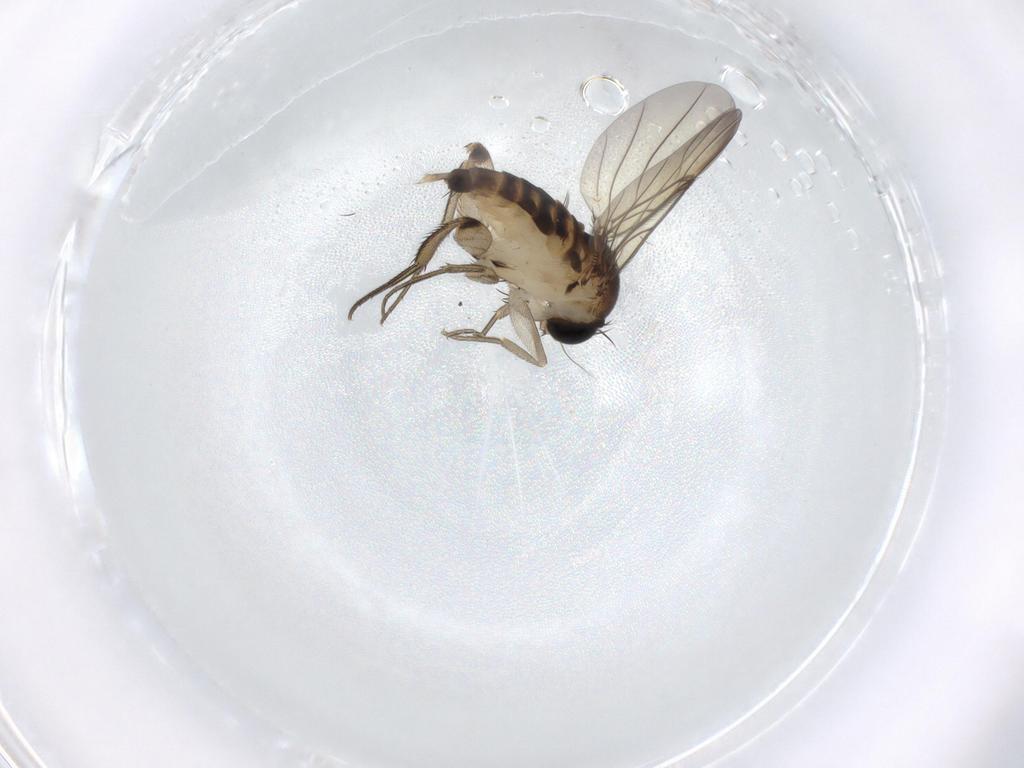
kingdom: Animalia
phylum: Arthropoda
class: Insecta
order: Diptera
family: Phoridae
